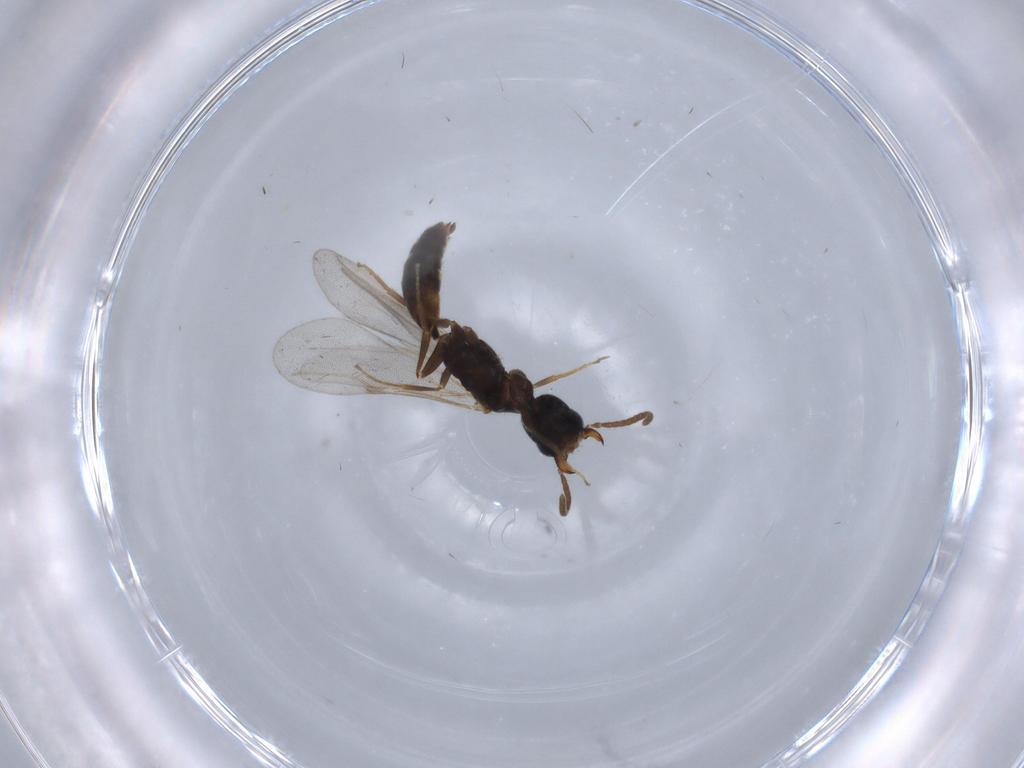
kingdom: Animalia
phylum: Arthropoda
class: Insecta
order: Hymenoptera
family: Bethylidae
